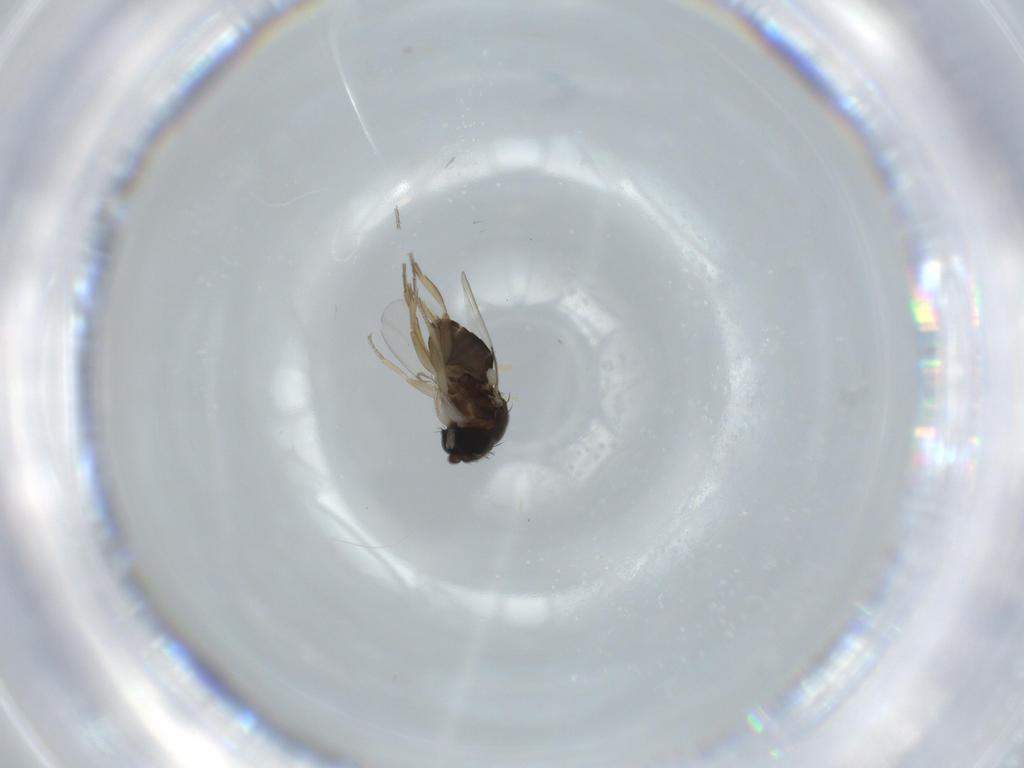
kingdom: Animalia
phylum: Arthropoda
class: Insecta
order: Diptera
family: Phoridae
